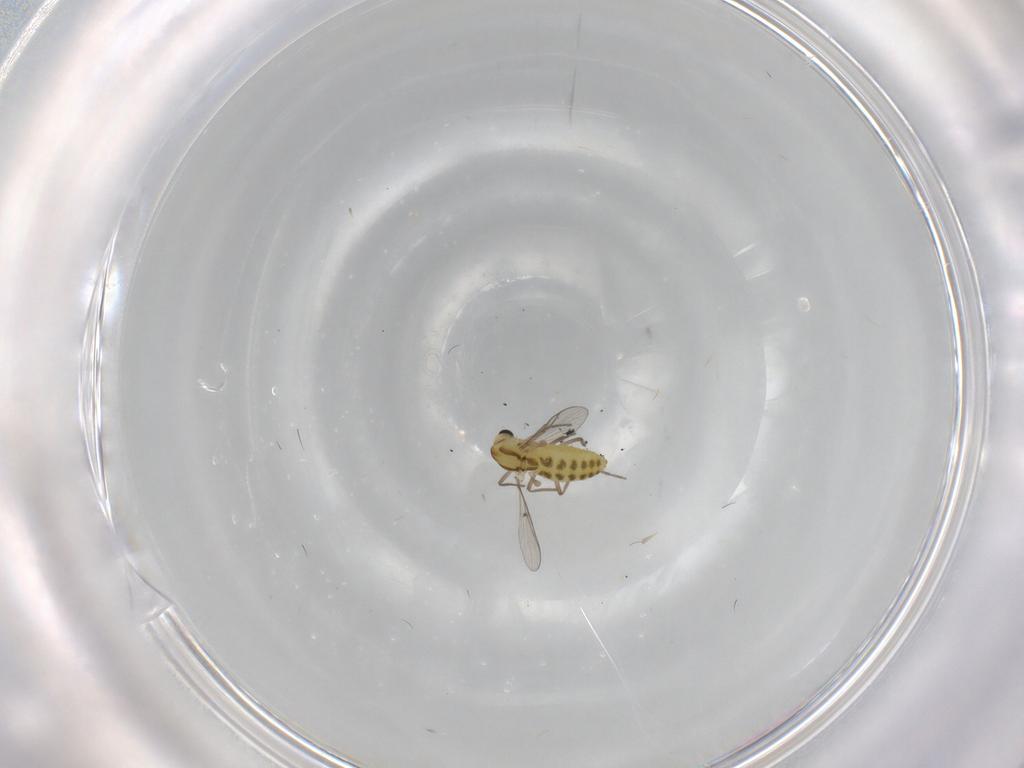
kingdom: Animalia
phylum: Arthropoda
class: Insecta
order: Diptera
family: Chironomidae
